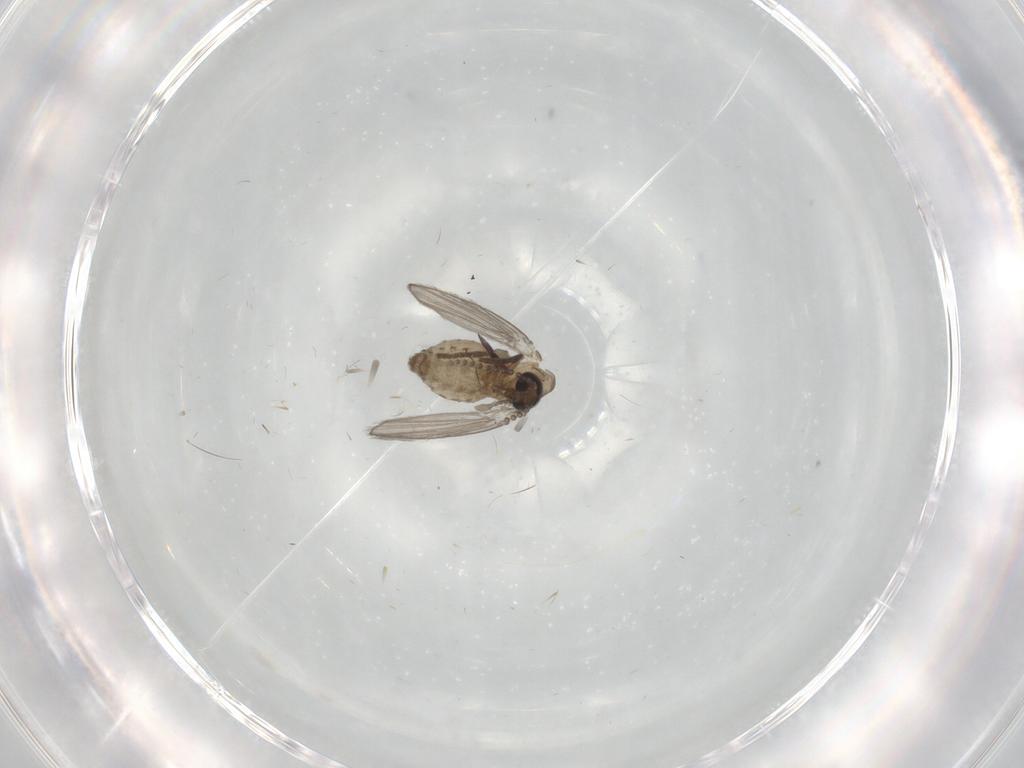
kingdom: Animalia
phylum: Arthropoda
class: Insecta
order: Diptera
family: Psychodidae
